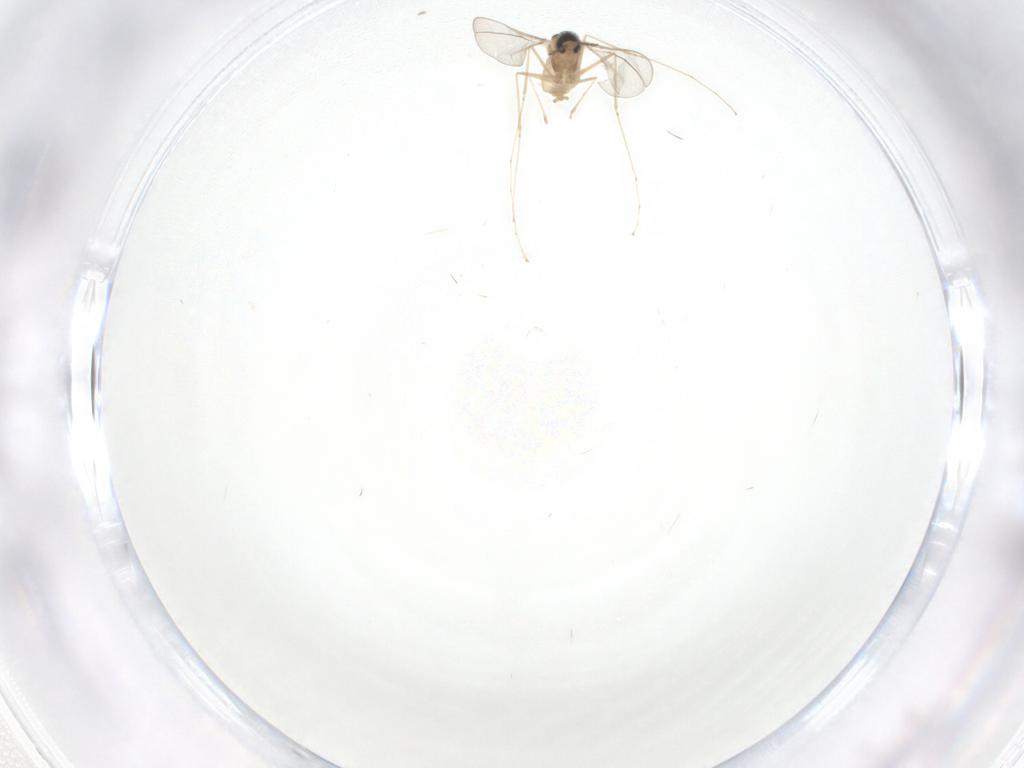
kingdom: Animalia
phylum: Arthropoda
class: Insecta
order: Diptera
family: Cecidomyiidae
